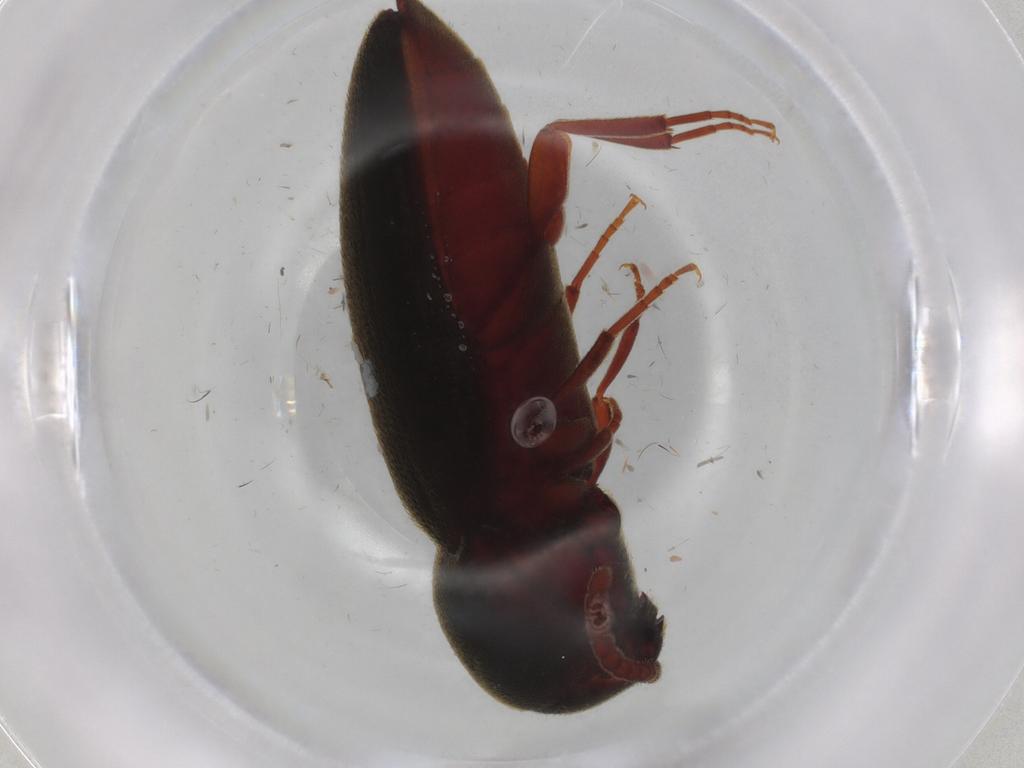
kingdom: Animalia
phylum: Arthropoda
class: Insecta
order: Coleoptera
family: Eucnemidae
